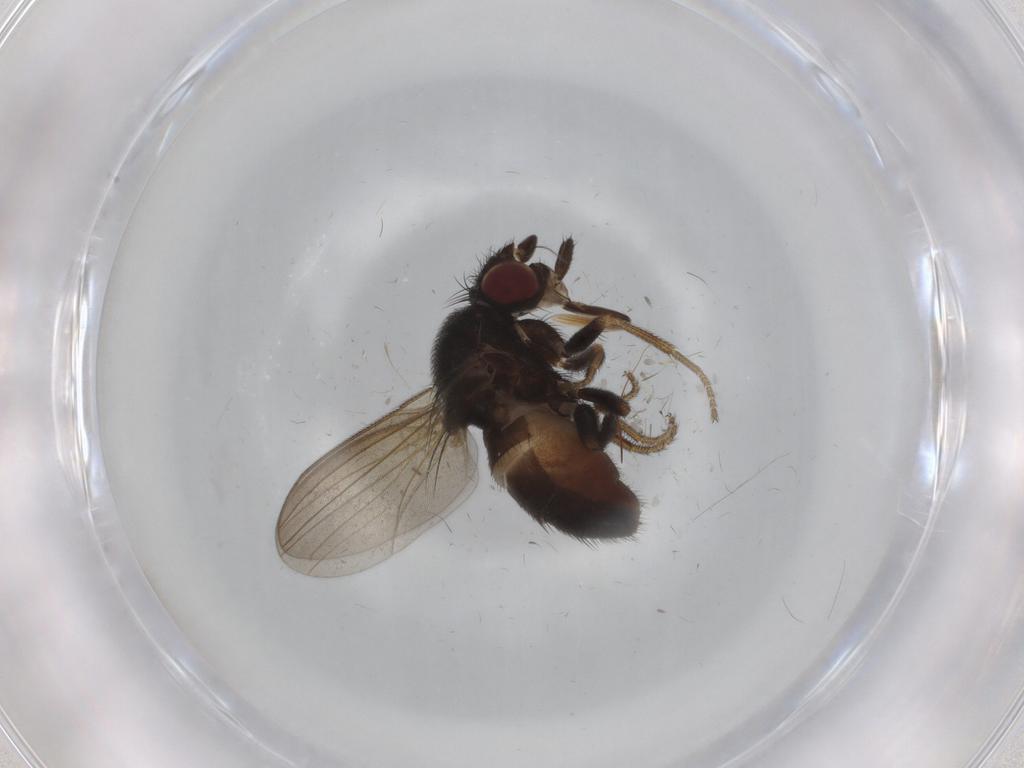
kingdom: Animalia
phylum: Arthropoda
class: Insecta
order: Diptera
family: Milichiidae
